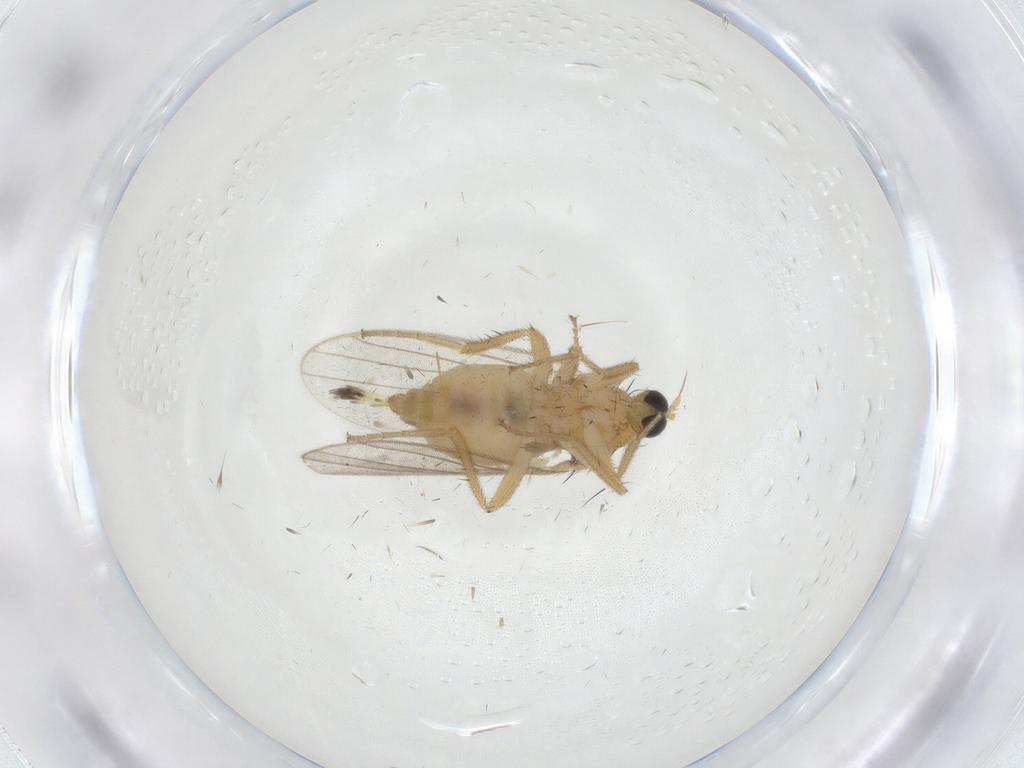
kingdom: Animalia
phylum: Arthropoda
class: Insecta
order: Diptera
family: Hybotidae
